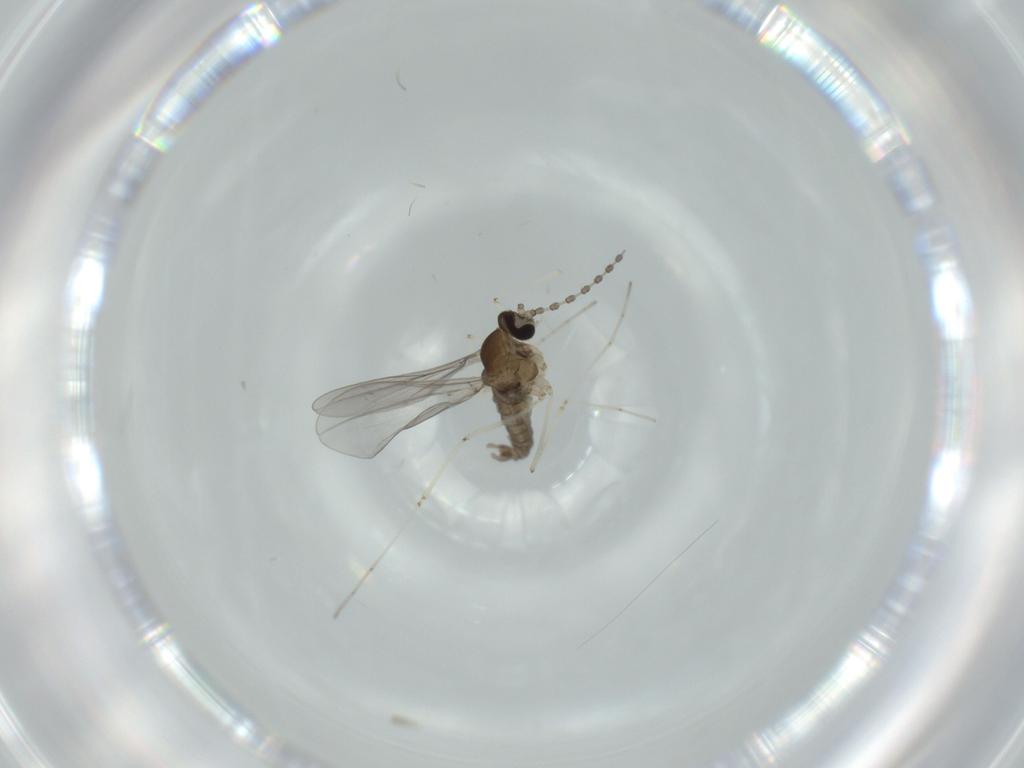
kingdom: Animalia
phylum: Arthropoda
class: Insecta
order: Diptera
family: Cecidomyiidae
